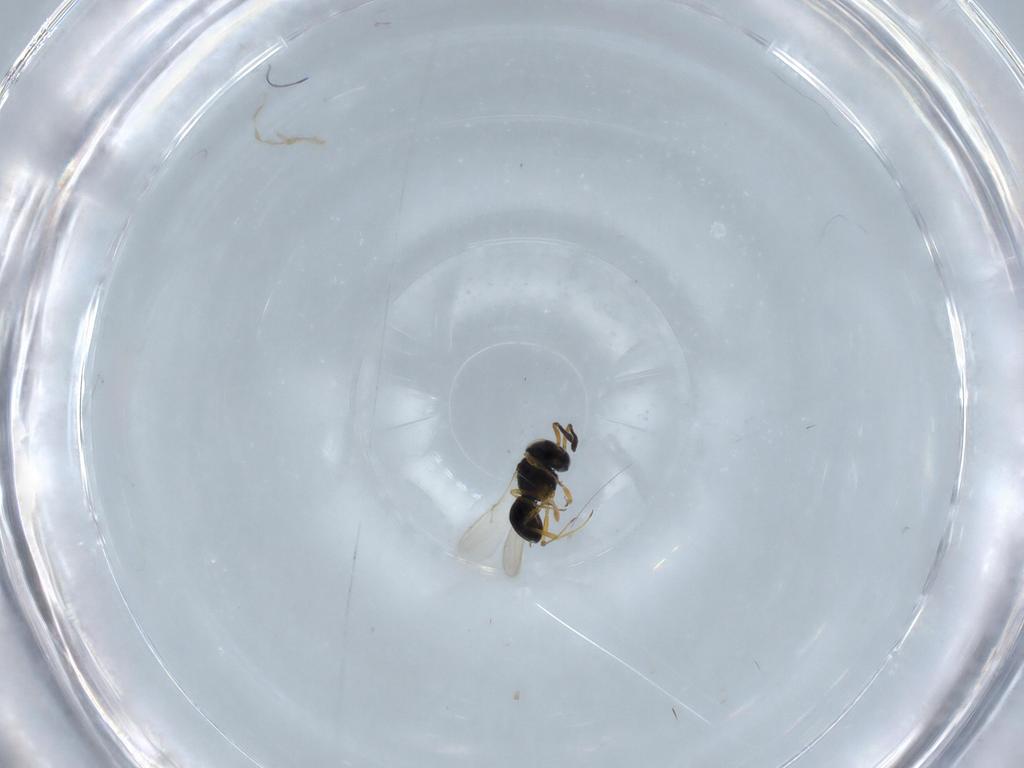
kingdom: Animalia
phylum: Arthropoda
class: Insecta
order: Hymenoptera
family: Scelionidae
